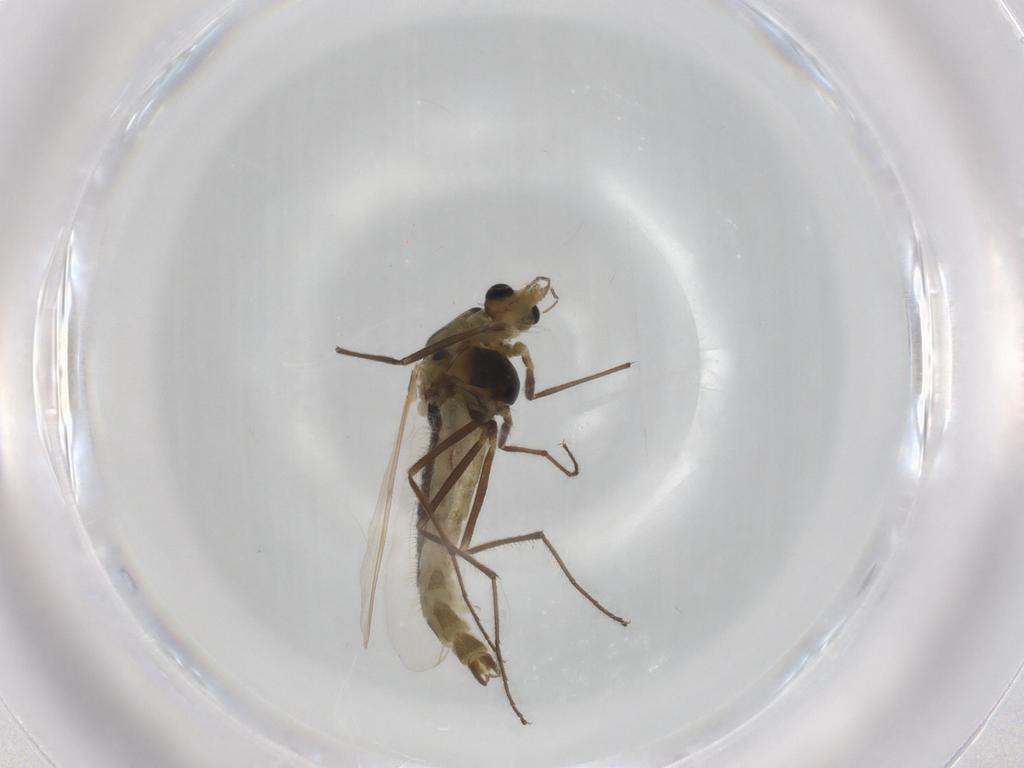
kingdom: Animalia
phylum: Arthropoda
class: Insecta
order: Diptera
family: Chironomidae
